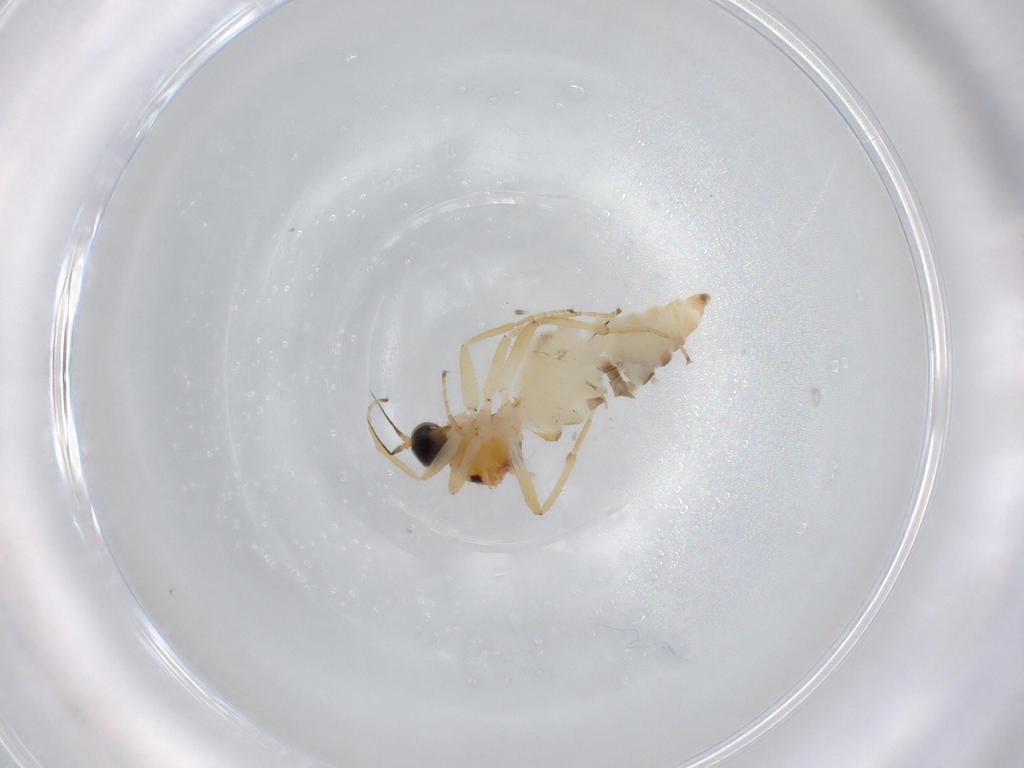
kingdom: Animalia
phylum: Arthropoda
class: Insecta
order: Diptera
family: Hybotidae
